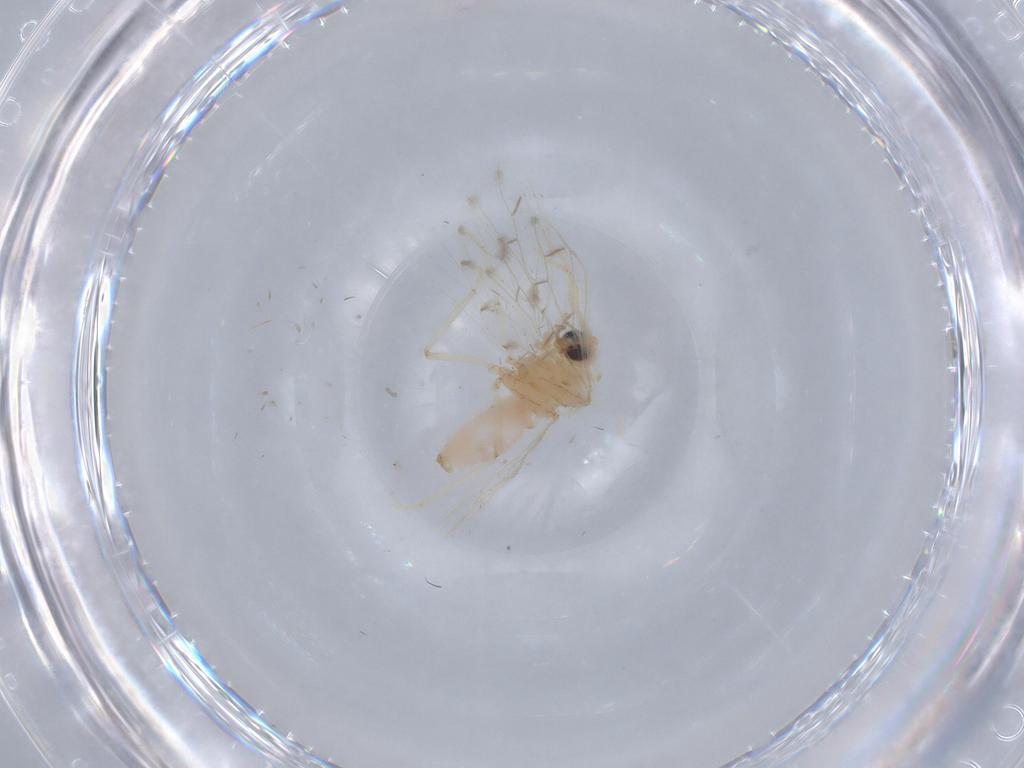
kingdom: Animalia
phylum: Arthropoda
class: Insecta
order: Neuroptera
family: Coniopterygidae
